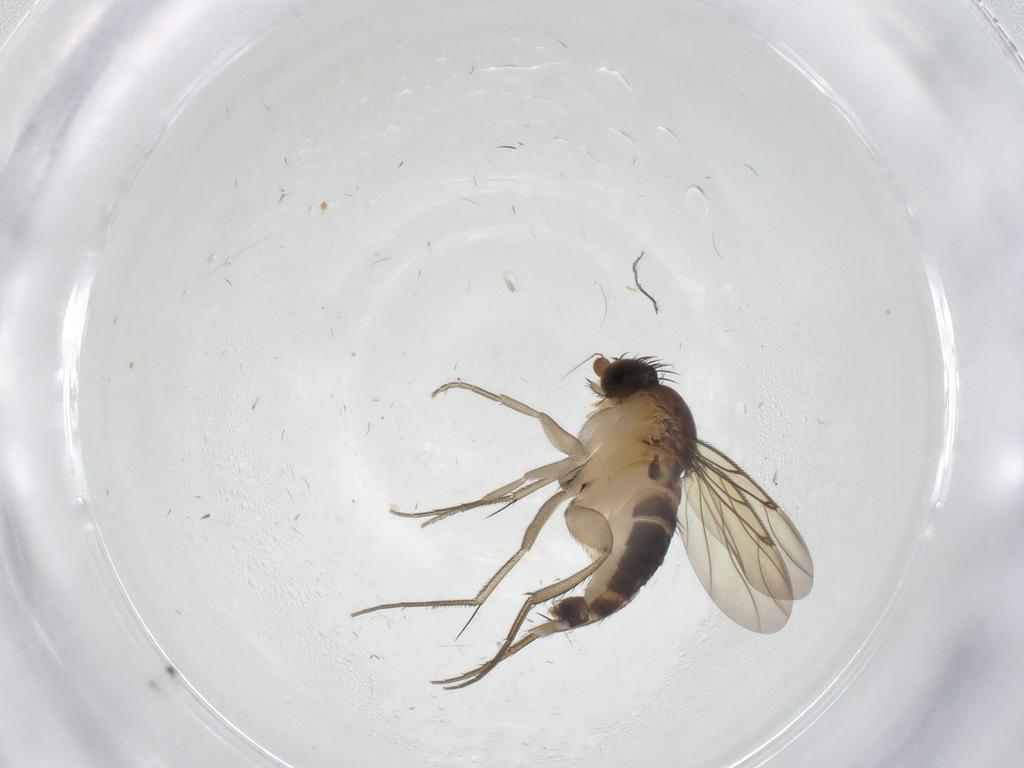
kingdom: Animalia
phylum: Arthropoda
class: Insecta
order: Diptera
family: Phoridae
